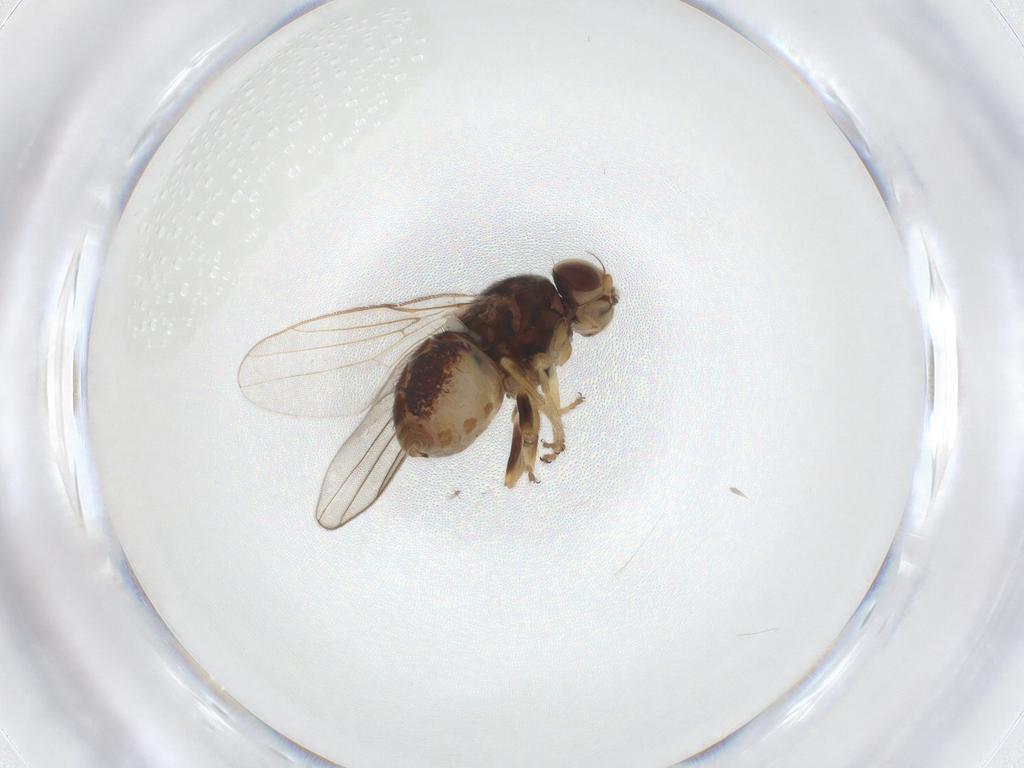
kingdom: Animalia
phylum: Arthropoda
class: Insecta
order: Diptera
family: Chloropidae
